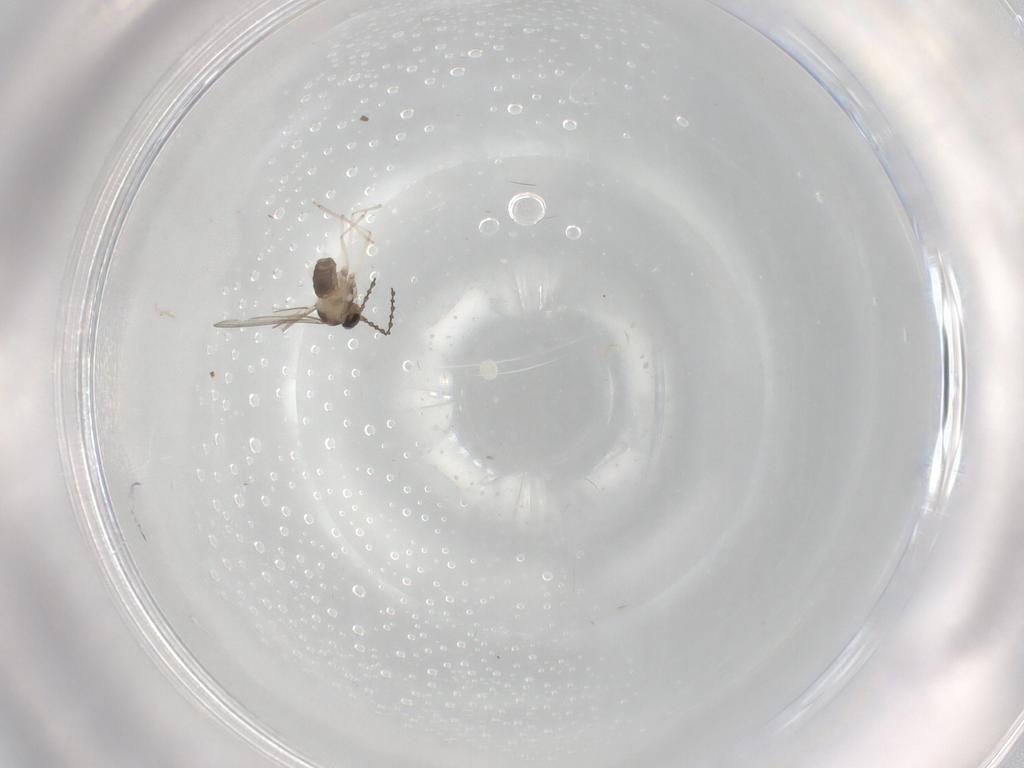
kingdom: Animalia
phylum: Arthropoda
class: Insecta
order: Diptera
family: Cecidomyiidae
